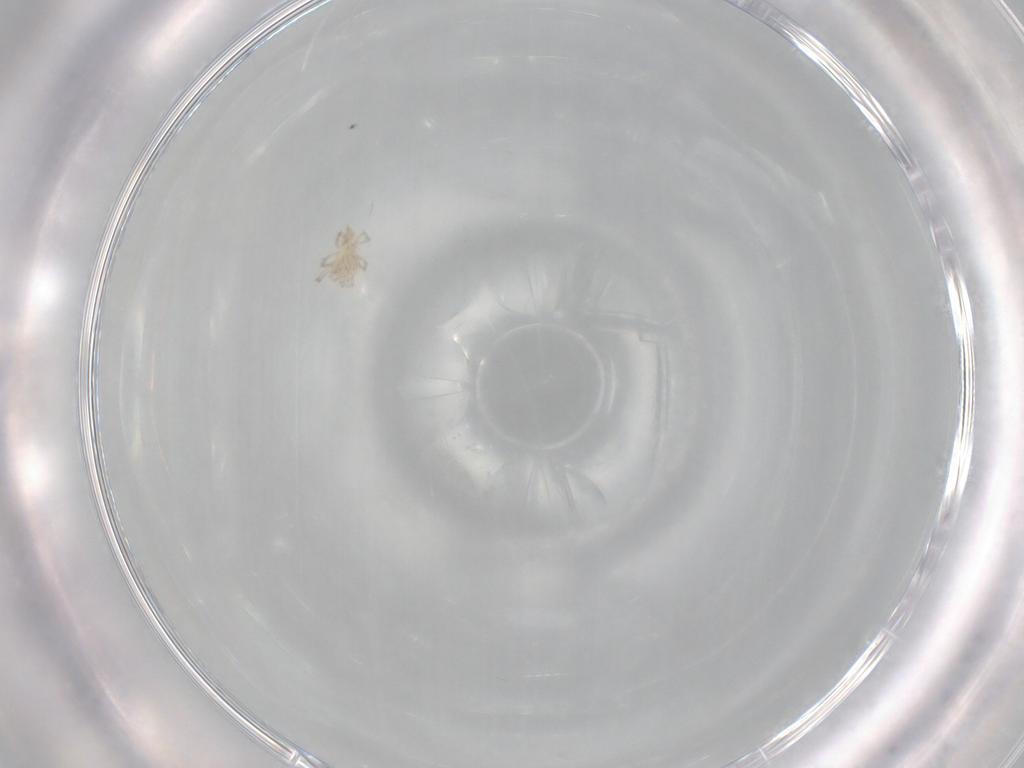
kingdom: Animalia
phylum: Arthropoda
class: Arachnida
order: Trombidiformes
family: Erythraeidae
